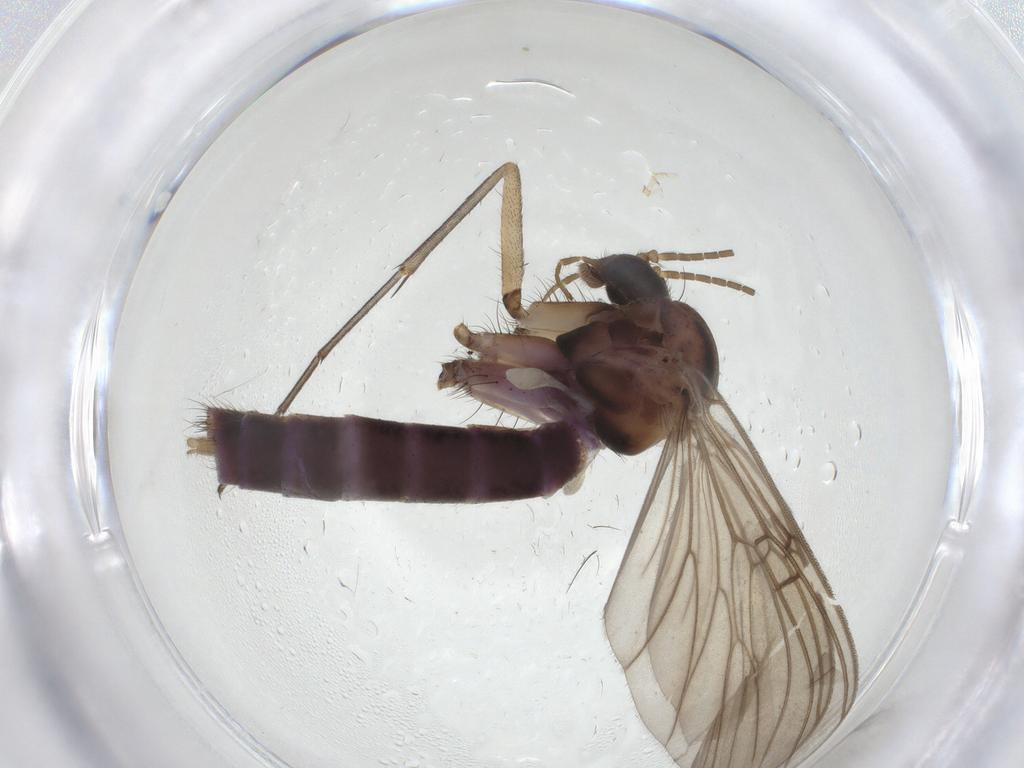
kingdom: Animalia
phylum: Arthropoda
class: Insecta
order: Diptera
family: Mycetophilidae
